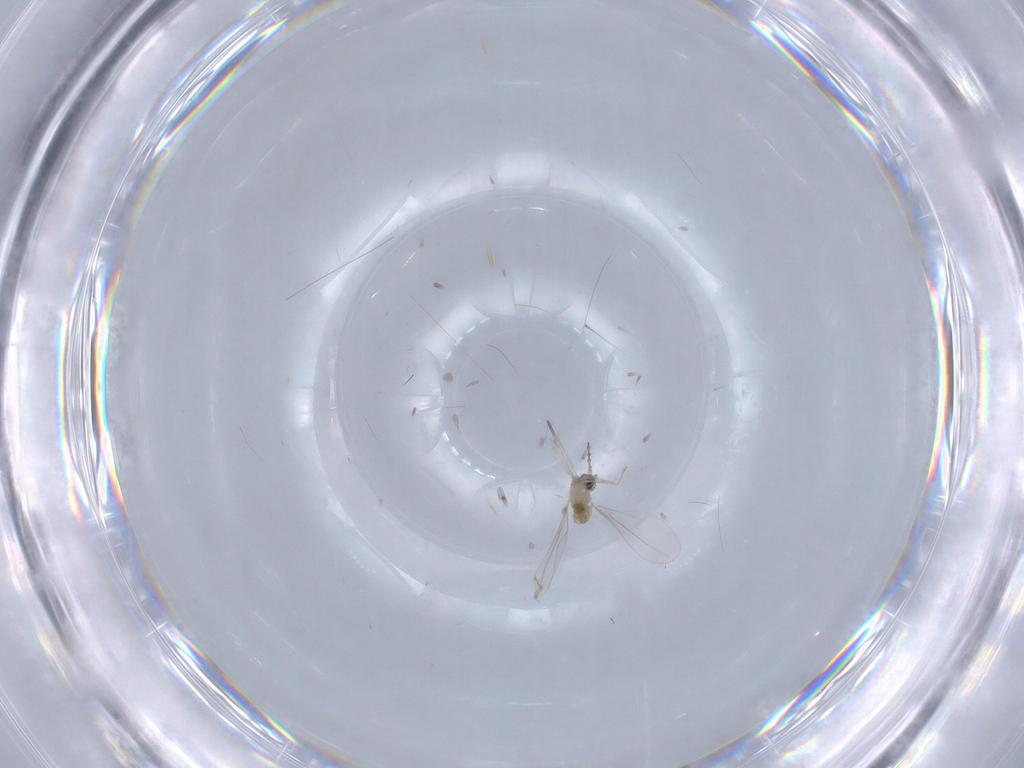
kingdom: Animalia
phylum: Arthropoda
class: Insecta
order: Diptera
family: Cecidomyiidae
